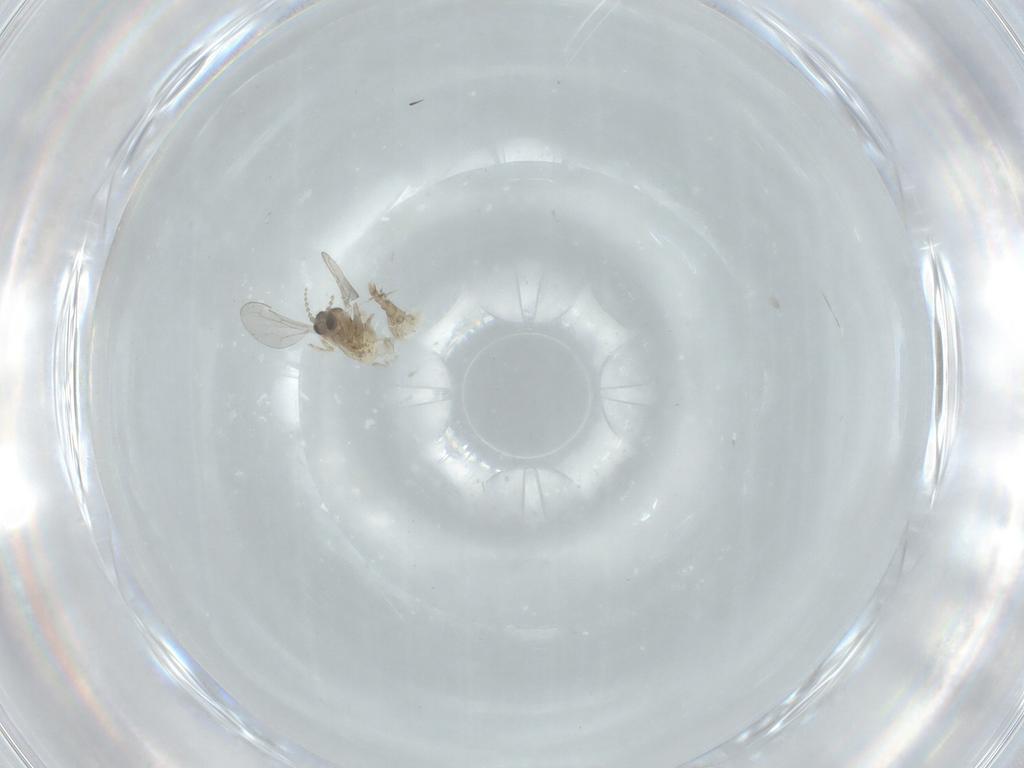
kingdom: Animalia
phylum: Arthropoda
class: Insecta
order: Diptera
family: Cecidomyiidae
